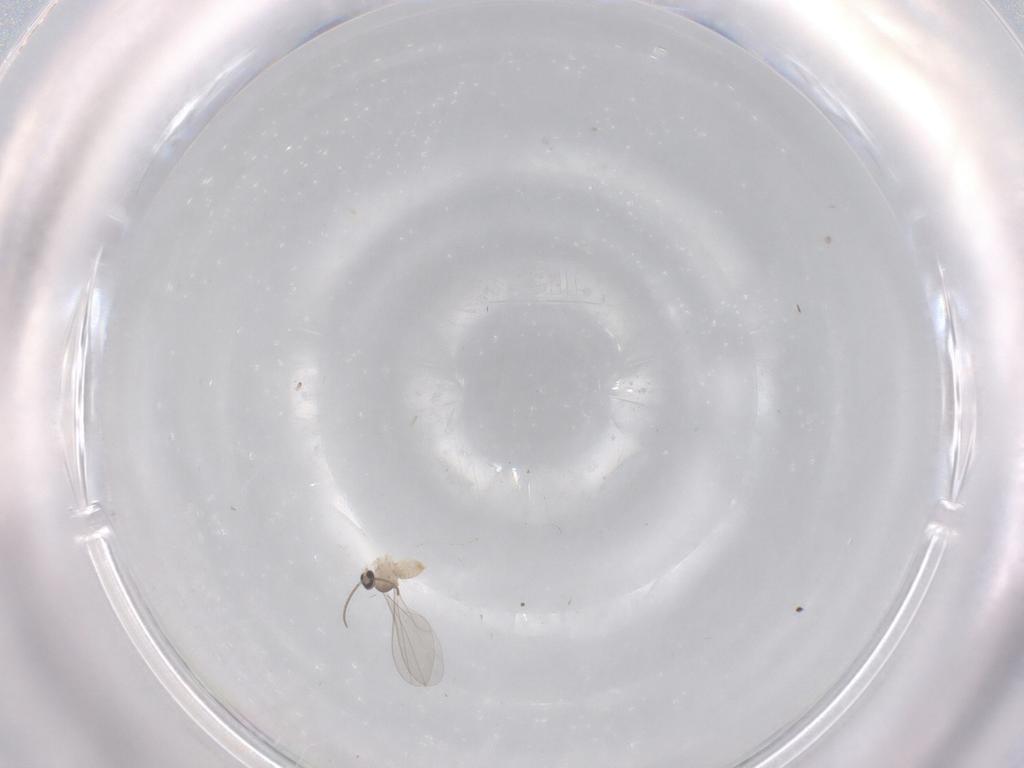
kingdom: Animalia
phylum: Arthropoda
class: Insecta
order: Diptera
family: Cecidomyiidae
